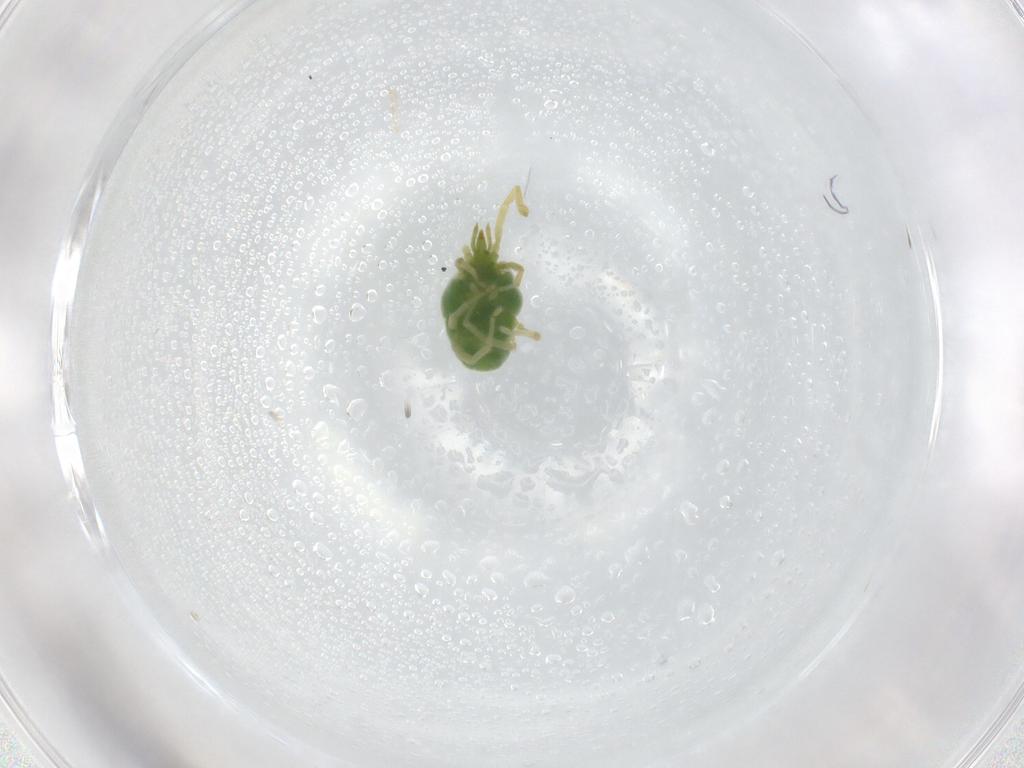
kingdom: Animalia
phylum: Arthropoda
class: Arachnida
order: Trombidiformes
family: Erythraeidae
